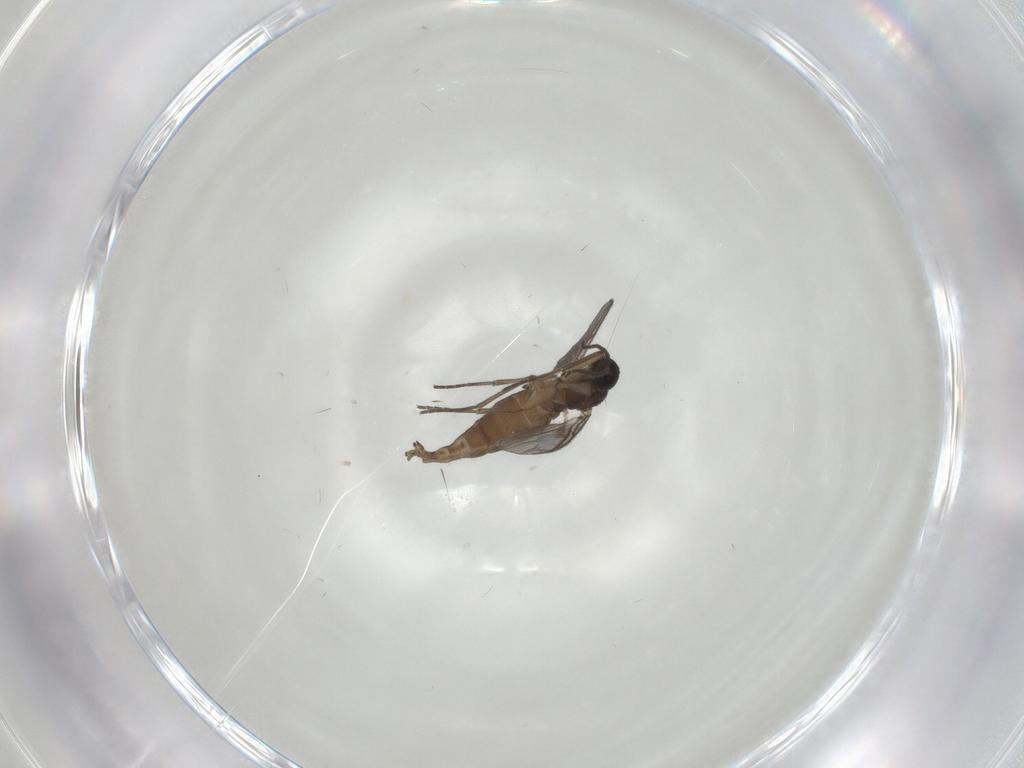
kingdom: Animalia
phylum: Arthropoda
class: Insecta
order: Diptera
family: Sciaridae
